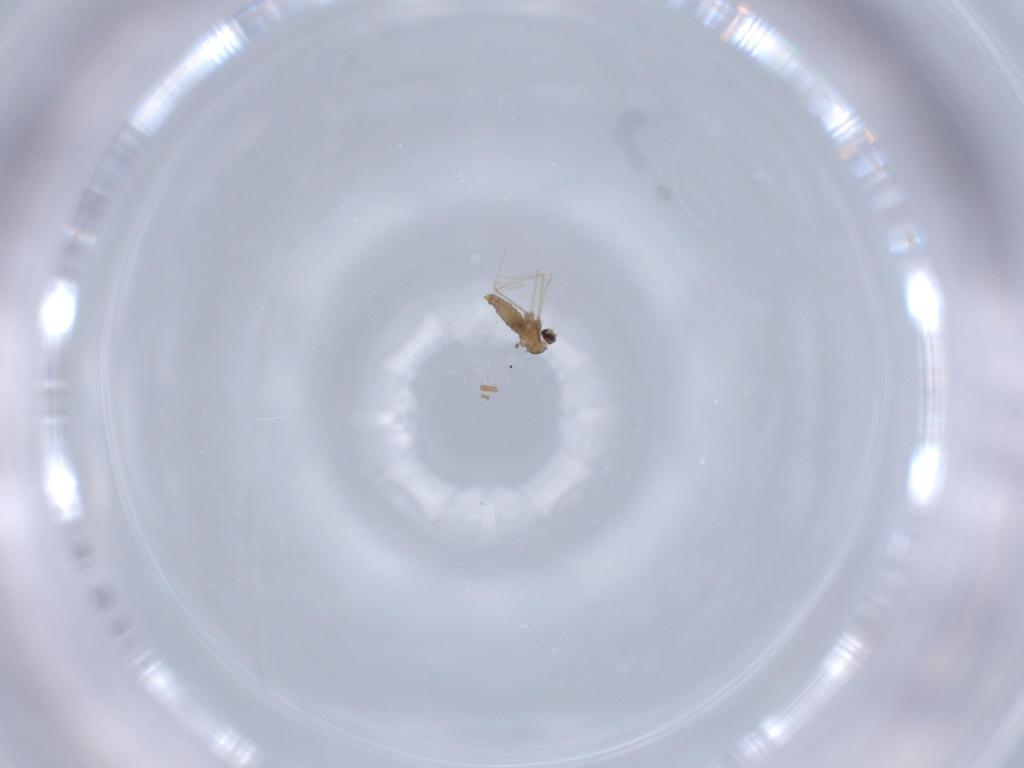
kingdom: Animalia
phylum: Arthropoda
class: Insecta
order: Diptera
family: Cecidomyiidae
